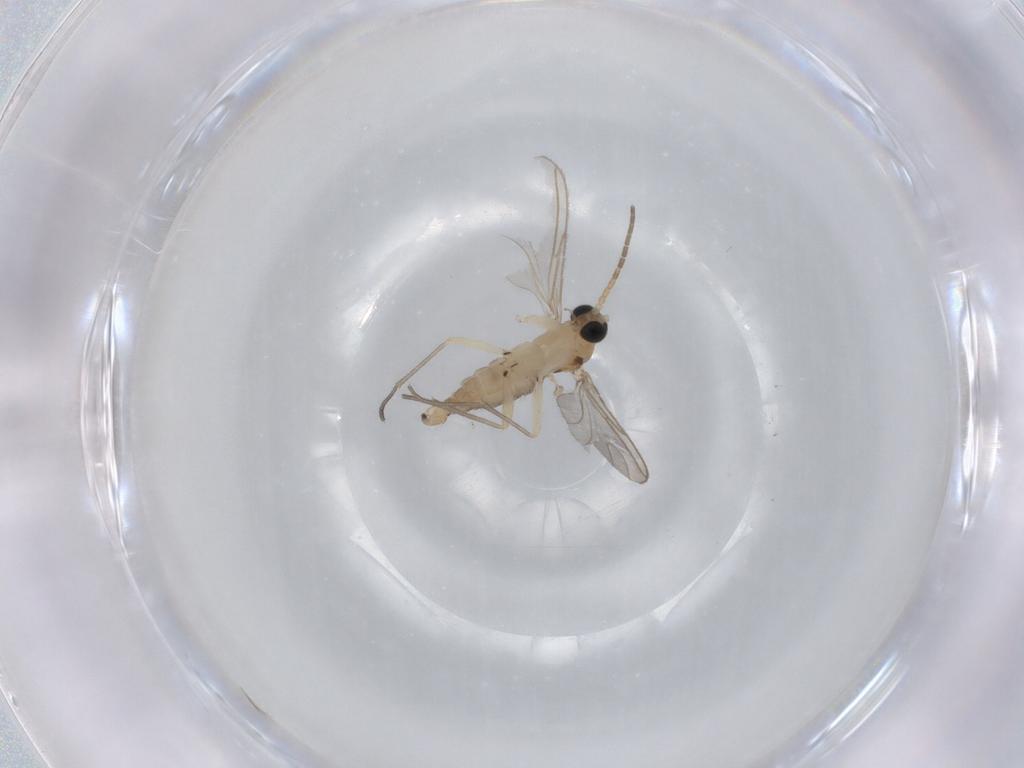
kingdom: Animalia
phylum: Arthropoda
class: Insecta
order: Diptera
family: Sciaridae
